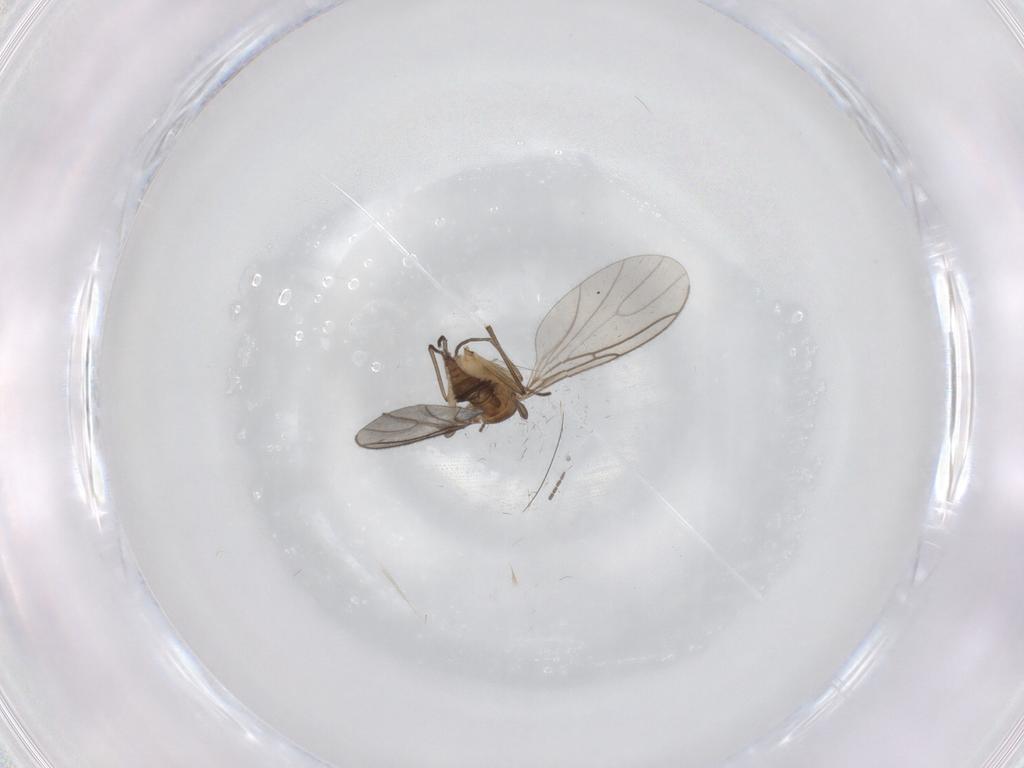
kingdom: Animalia
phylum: Arthropoda
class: Insecta
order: Diptera
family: Sciaridae
